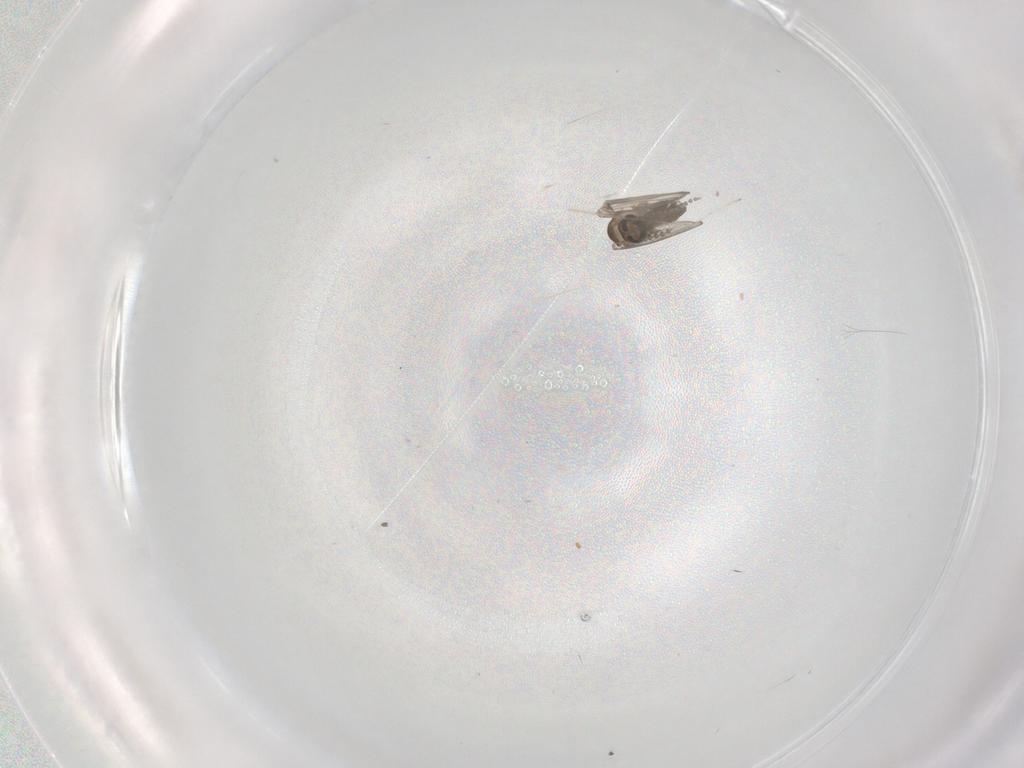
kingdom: Animalia
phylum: Arthropoda
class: Insecta
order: Diptera
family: Psychodidae
